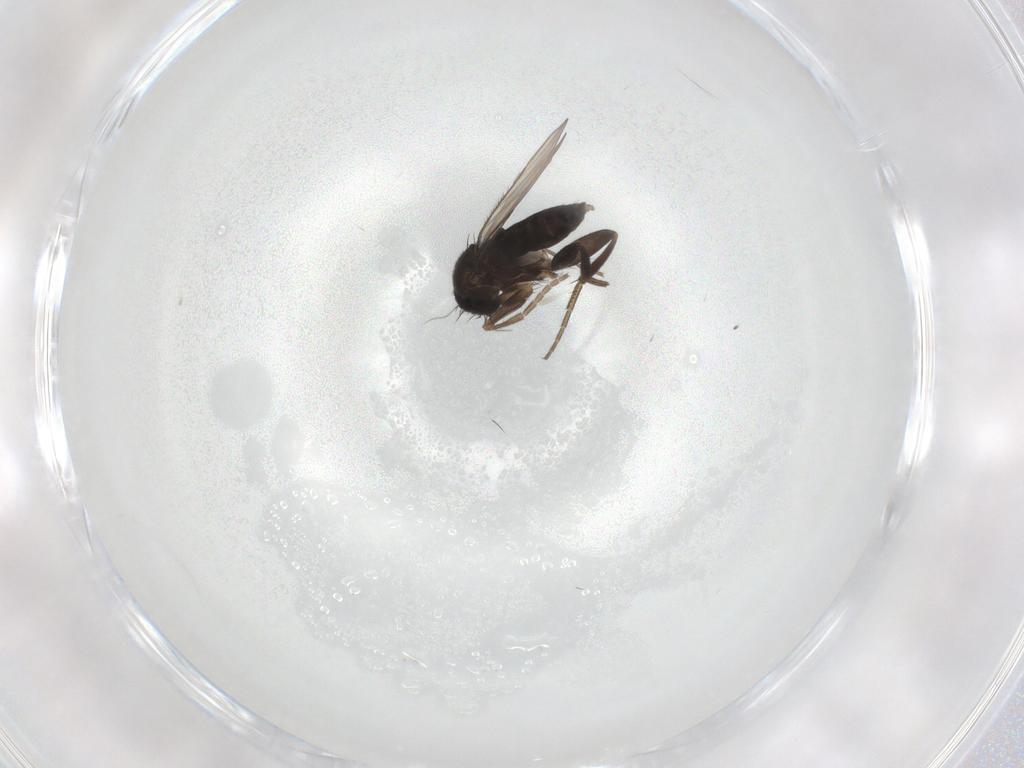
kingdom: Animalia
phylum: Arthropoda
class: Insecta
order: Diptera
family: Phoridae
